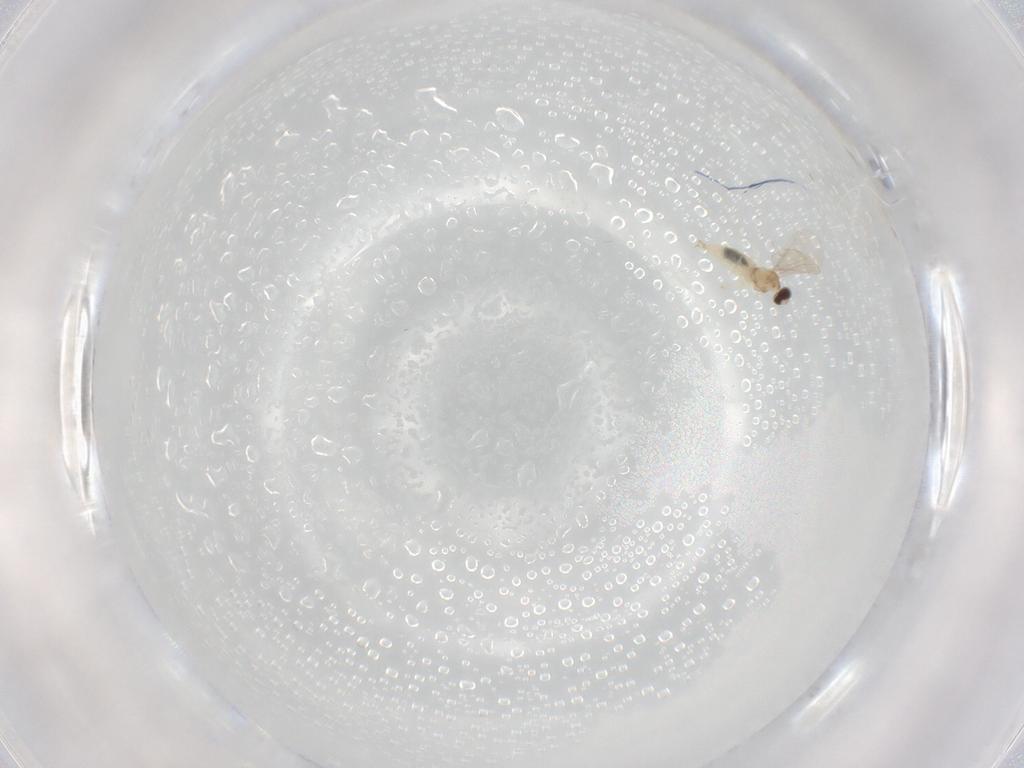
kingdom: Animalia
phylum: Arthropoda
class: Insecta
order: Diptera
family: Cecidomyiidae
